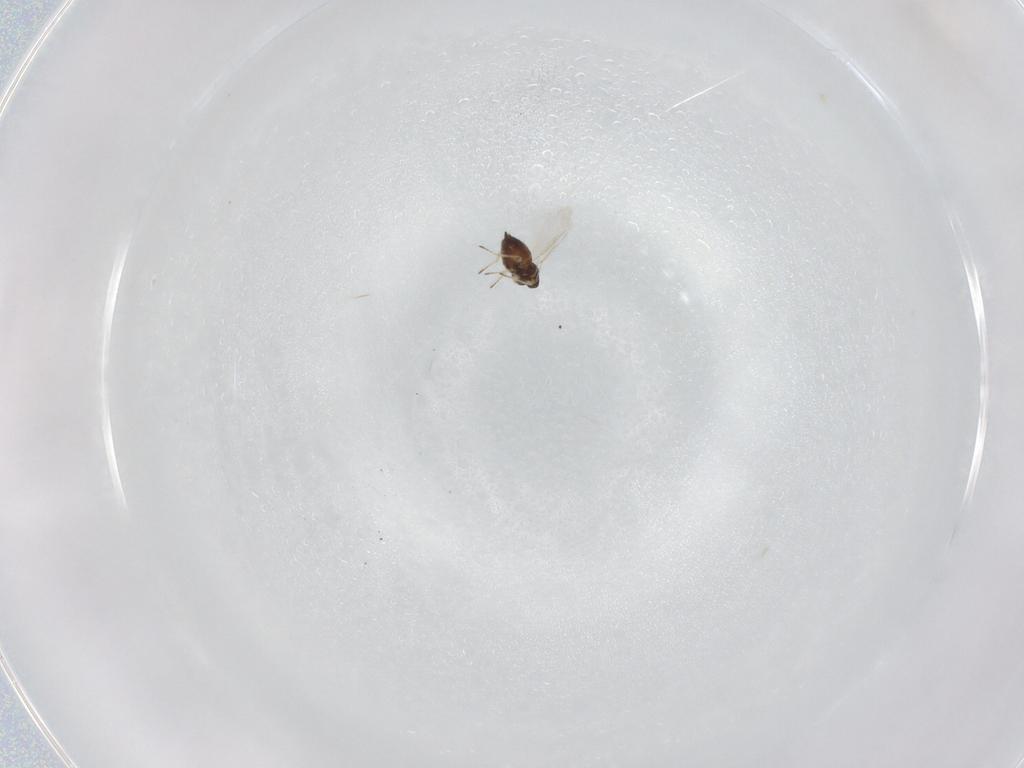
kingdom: Animalia
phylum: Arthropoda
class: Insecta
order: Hymenoptera
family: Eulophidae
